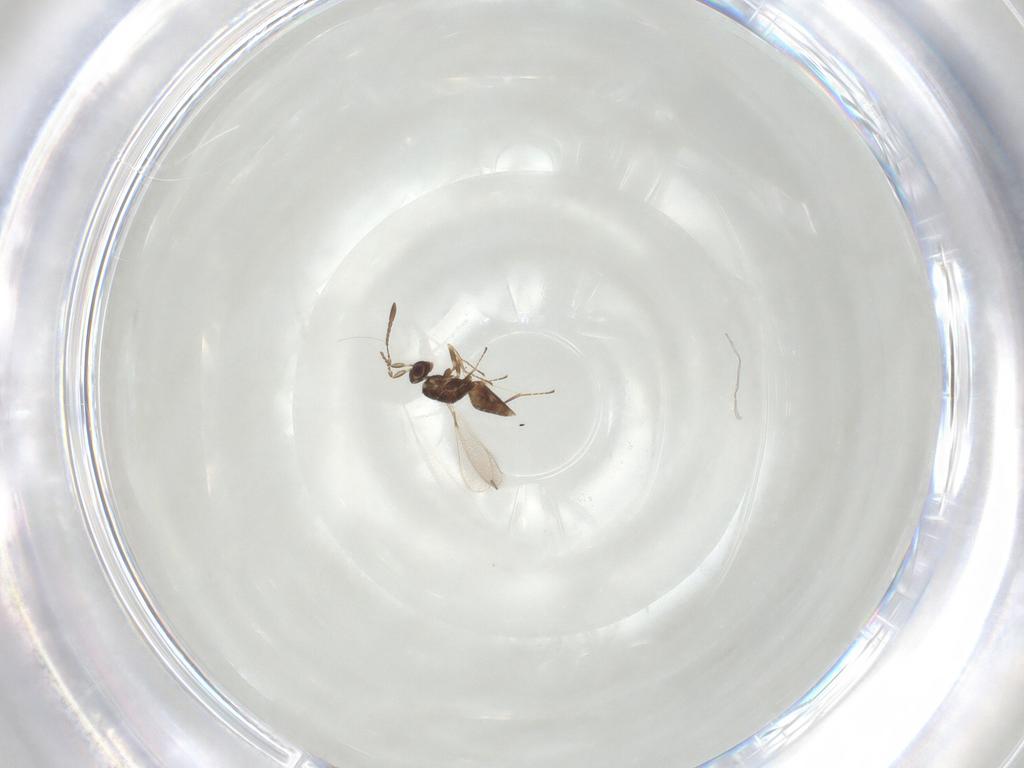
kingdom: Animalia
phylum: Arthropoda
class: Insecta
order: Hymenoptera
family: Mymaridae
